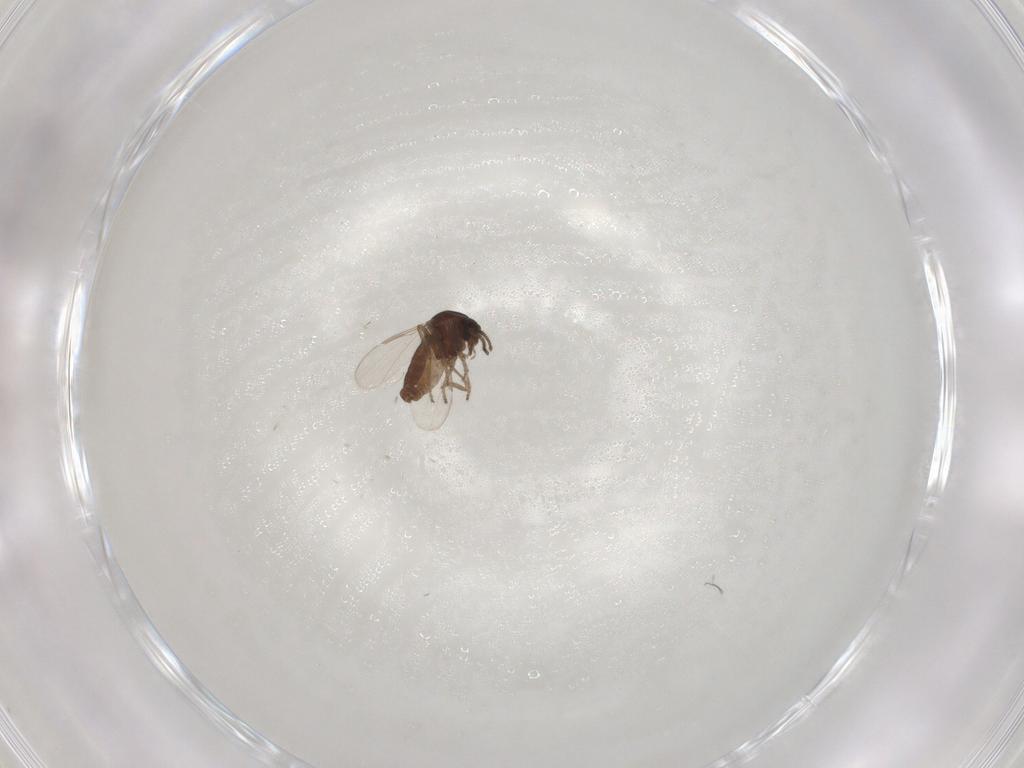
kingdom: Animalia
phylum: Arthropoda
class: Insecta
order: Diptera
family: Ceratopogonidae
